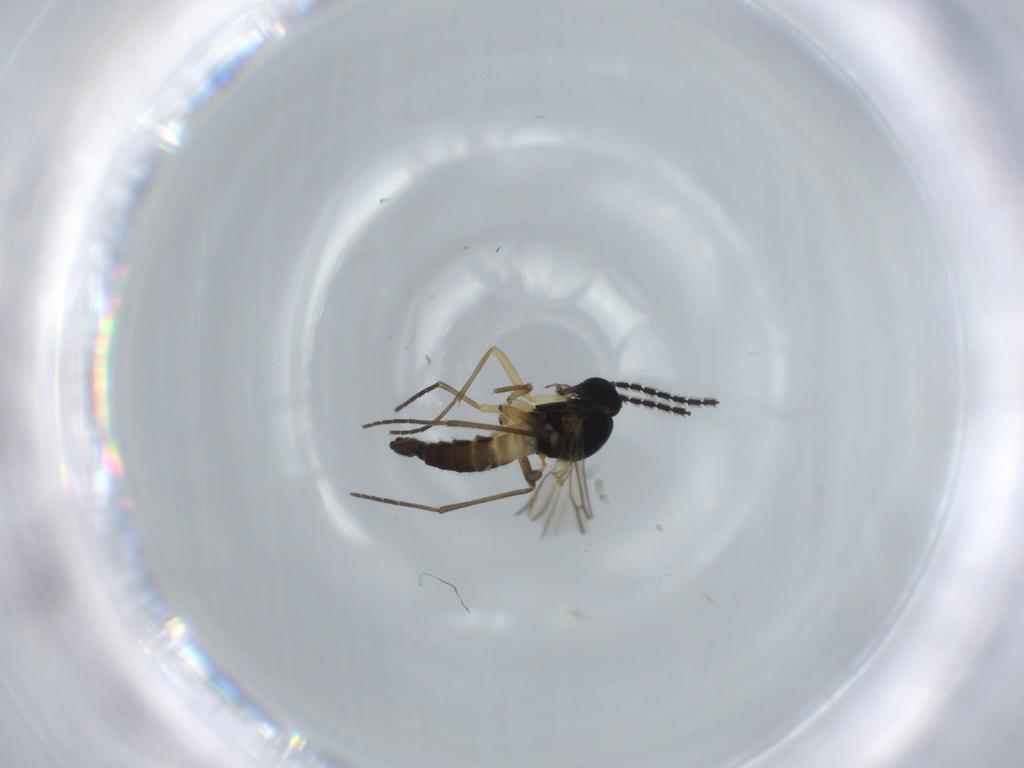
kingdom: Animalia
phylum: Arthropoda
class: Insecta
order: Diptera
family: Sciaridae
